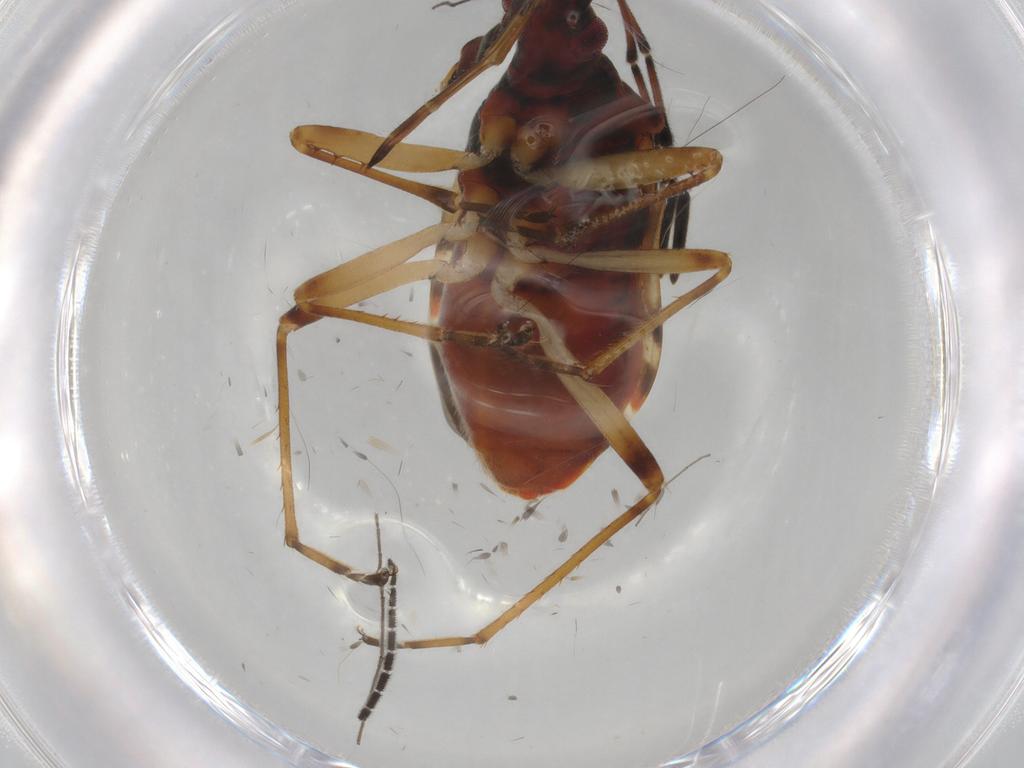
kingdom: Animalia
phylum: Arthropoda
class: Insecta
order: Hemiptera
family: Rhyparochromidae
